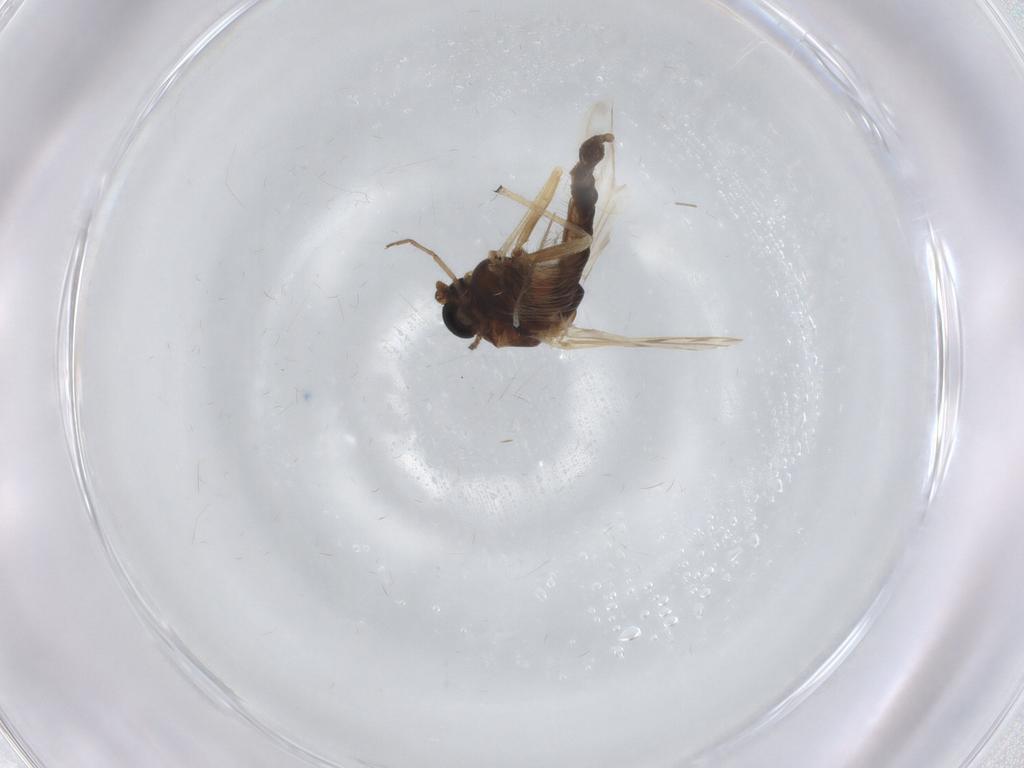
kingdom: Animalia
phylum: Arthropoda
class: Insecta
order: Diptera
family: Chironomidae
